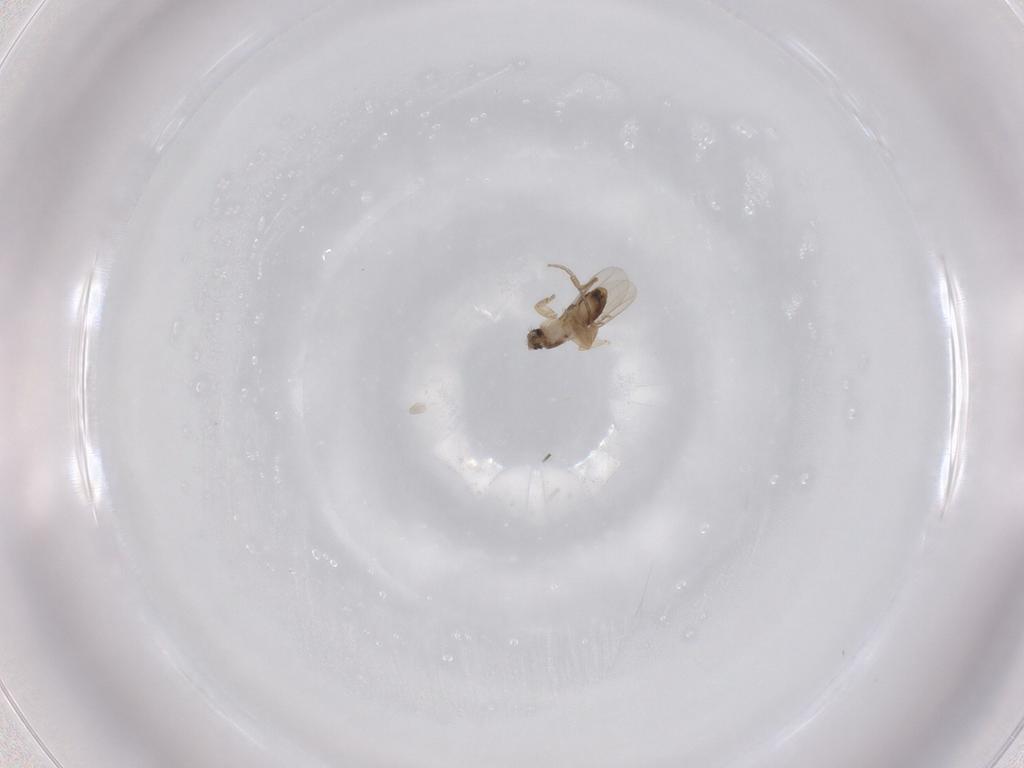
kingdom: Animalia
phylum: Arthropoda
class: Insecta
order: Diptera
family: Phoridae
